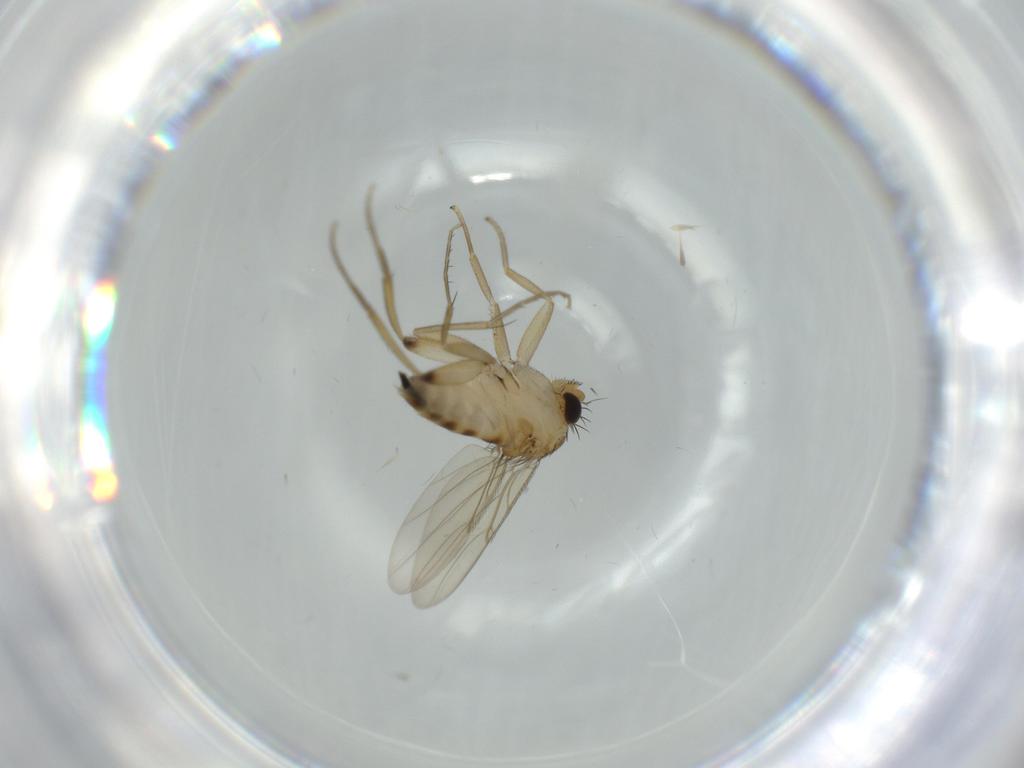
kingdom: Animalia
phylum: Arthropoda
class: Insecta
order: Diptera
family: Phoridae
